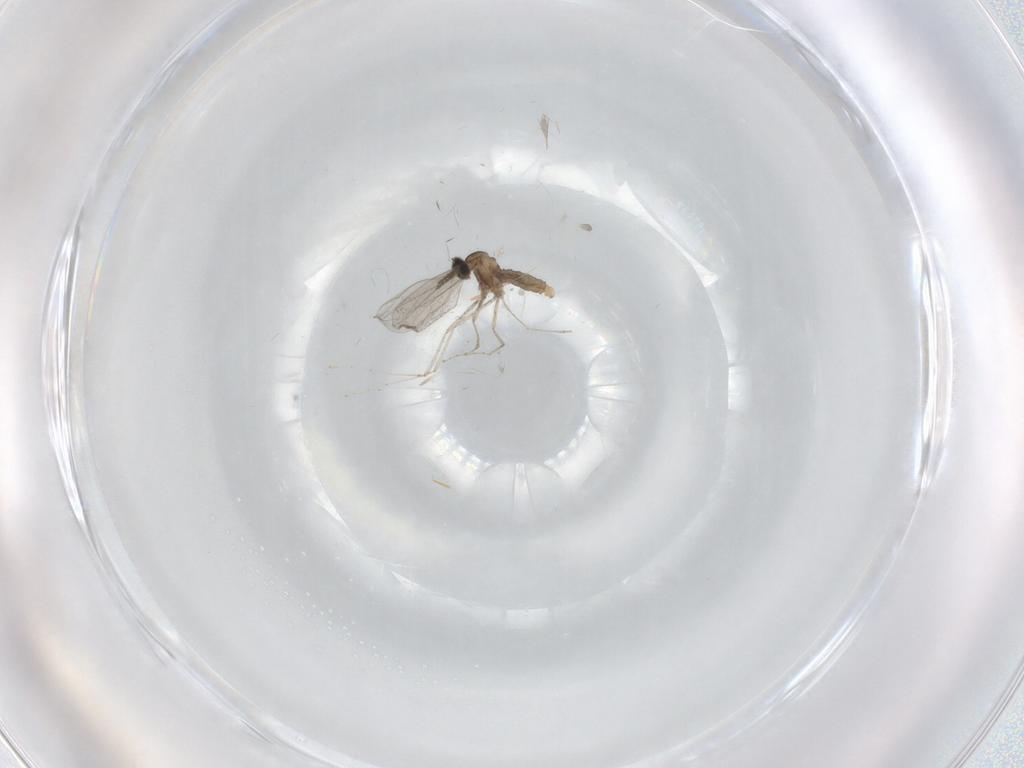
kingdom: Animalia
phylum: Arthropoda
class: Insecta
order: Diptera
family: Cecidomyiidae
